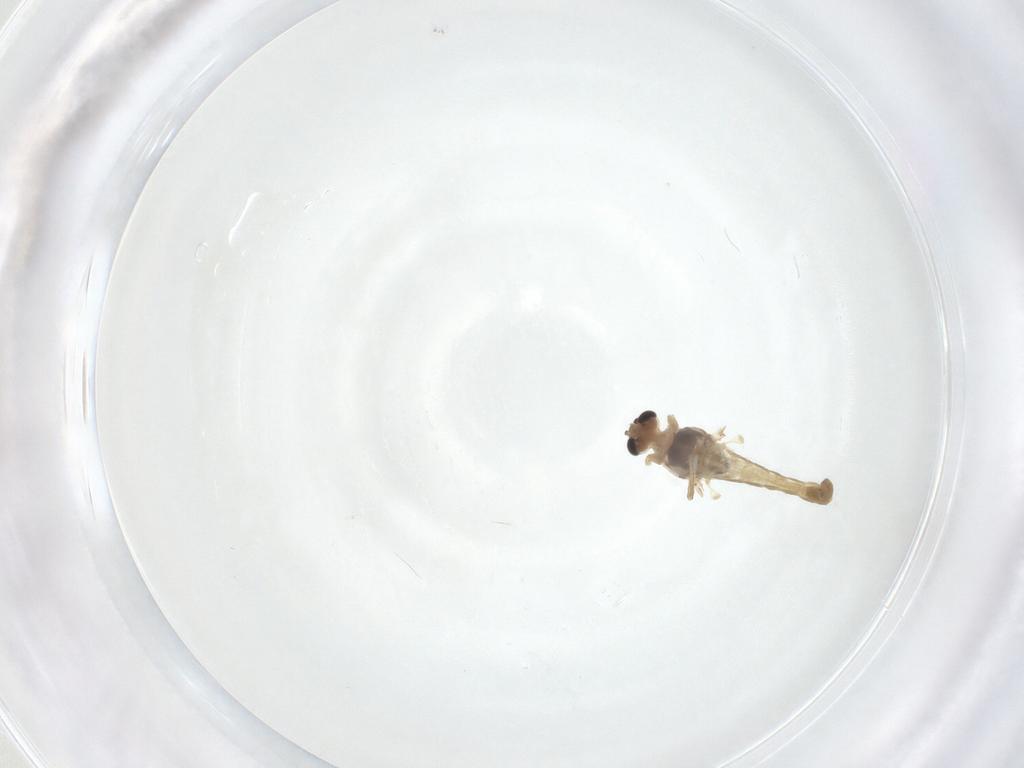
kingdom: Animalia
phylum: Arthropoda
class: Insecta
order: Diptera
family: Chironomidae
